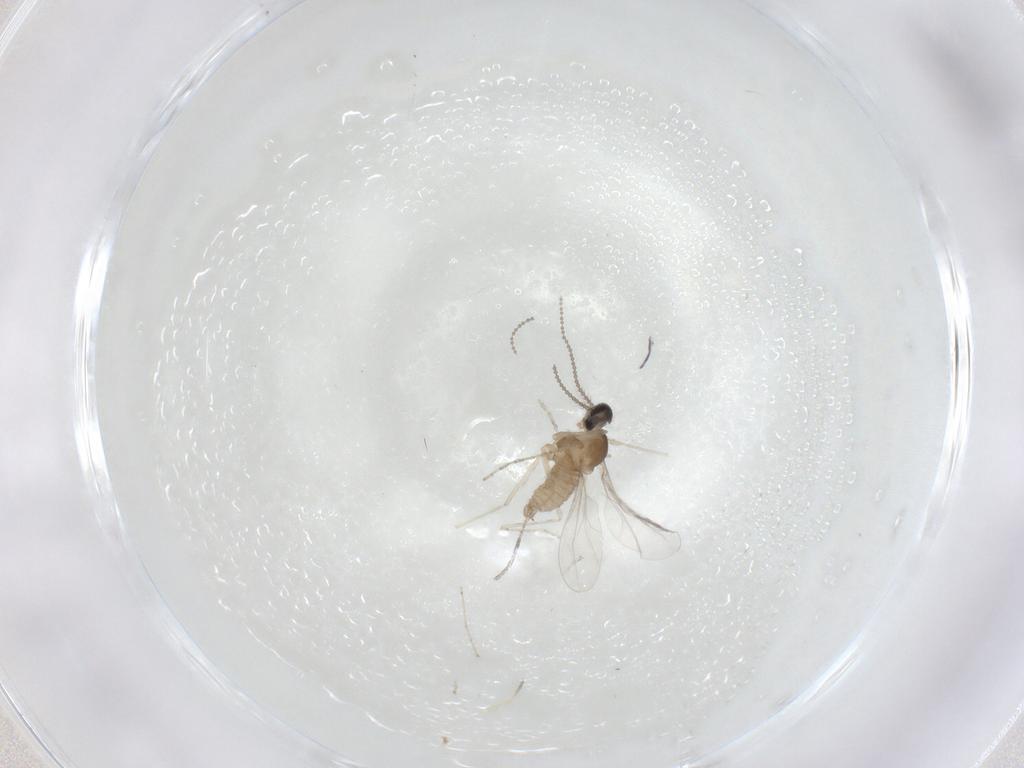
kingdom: Animalia
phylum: Arthropoda
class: Insecta
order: Diptera
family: Cecidomyiidae
